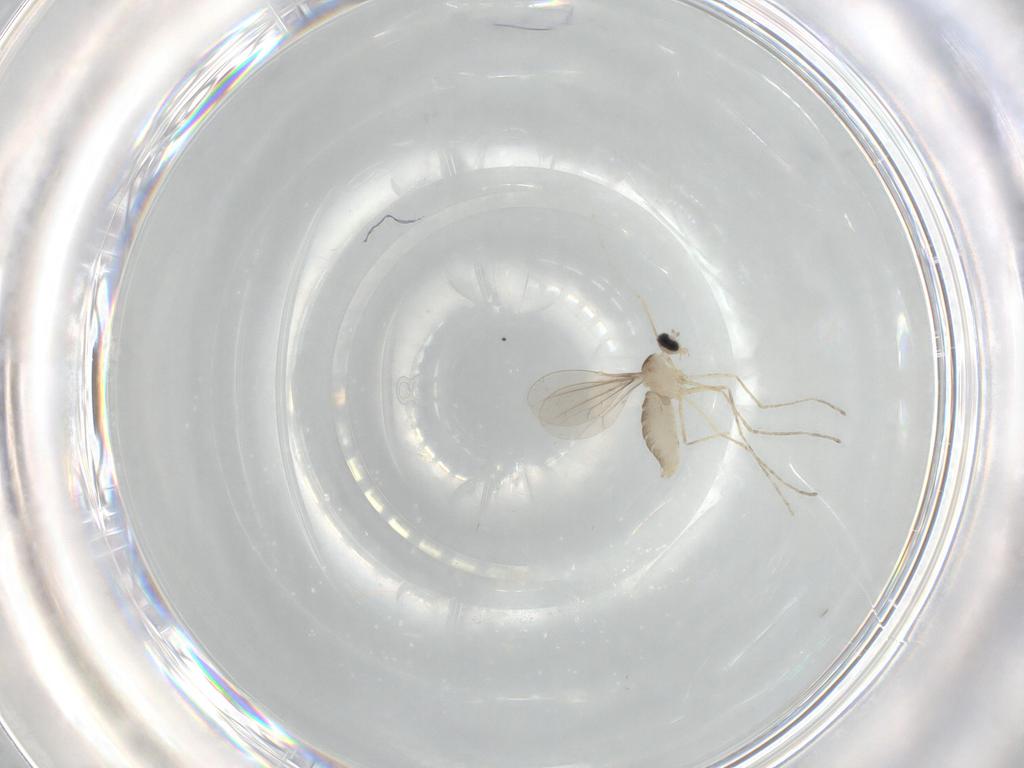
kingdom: Animalia
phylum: Arthropoda
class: Insecta
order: Diptera
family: Cecidomyiidae
